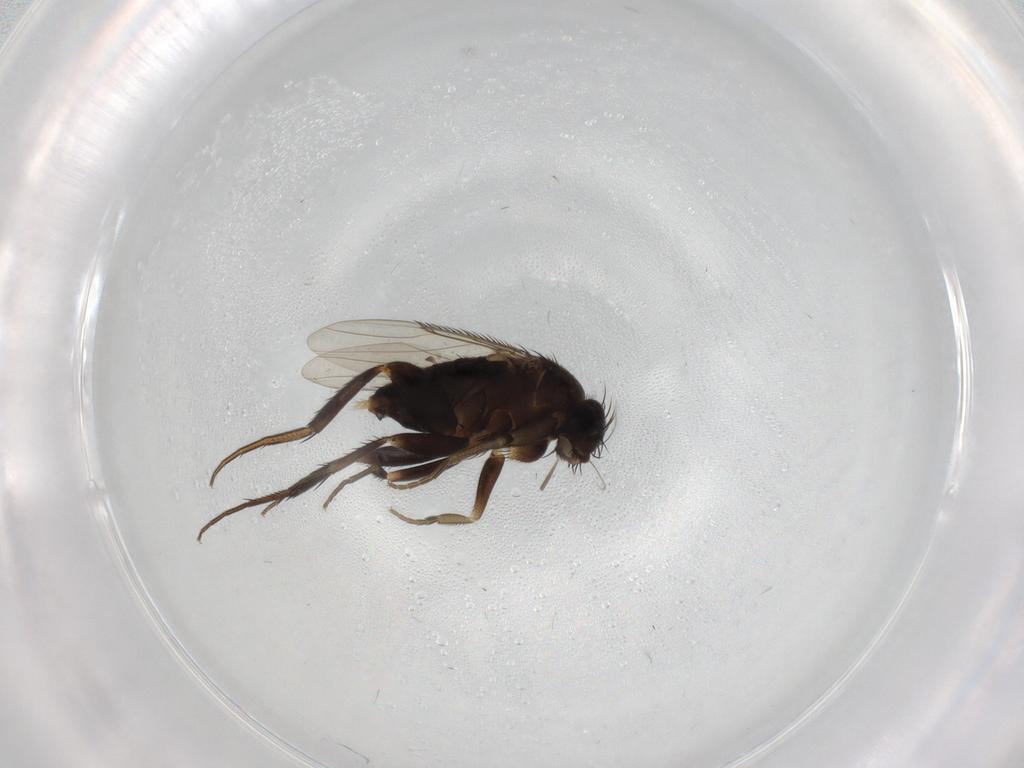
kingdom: Animalia
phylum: Arthropoda
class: Insecta
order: Diptera
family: Phoridae
